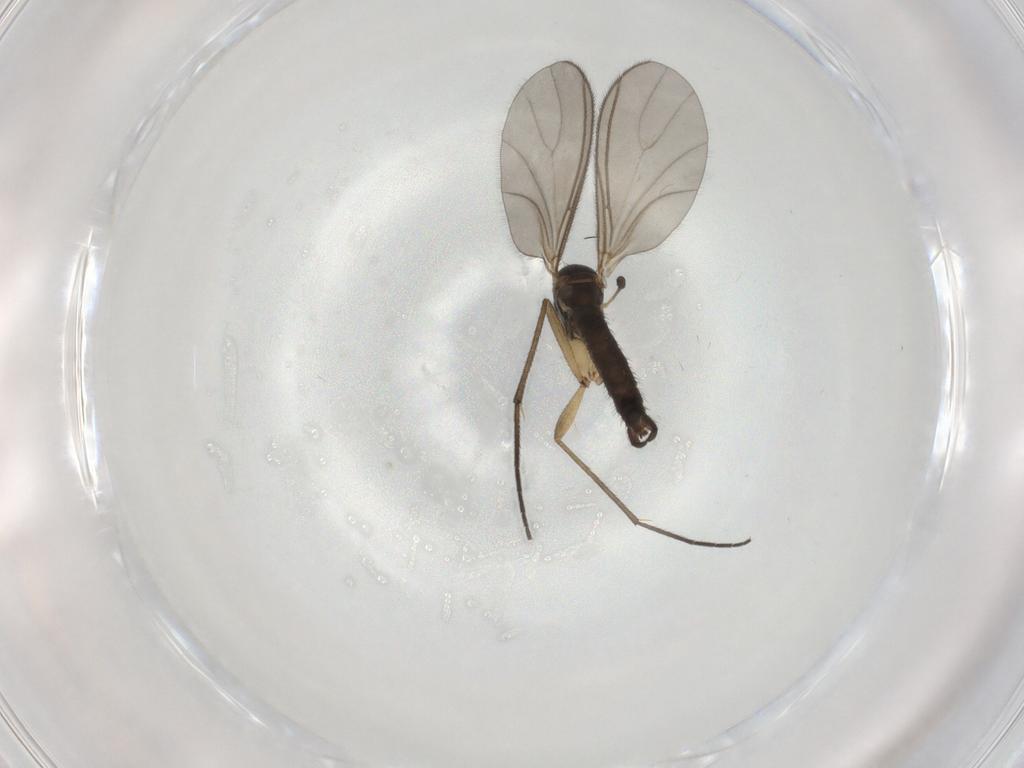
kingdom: Animalia
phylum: Arthropoda
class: Insecta
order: Diptera
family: Sciaridae
